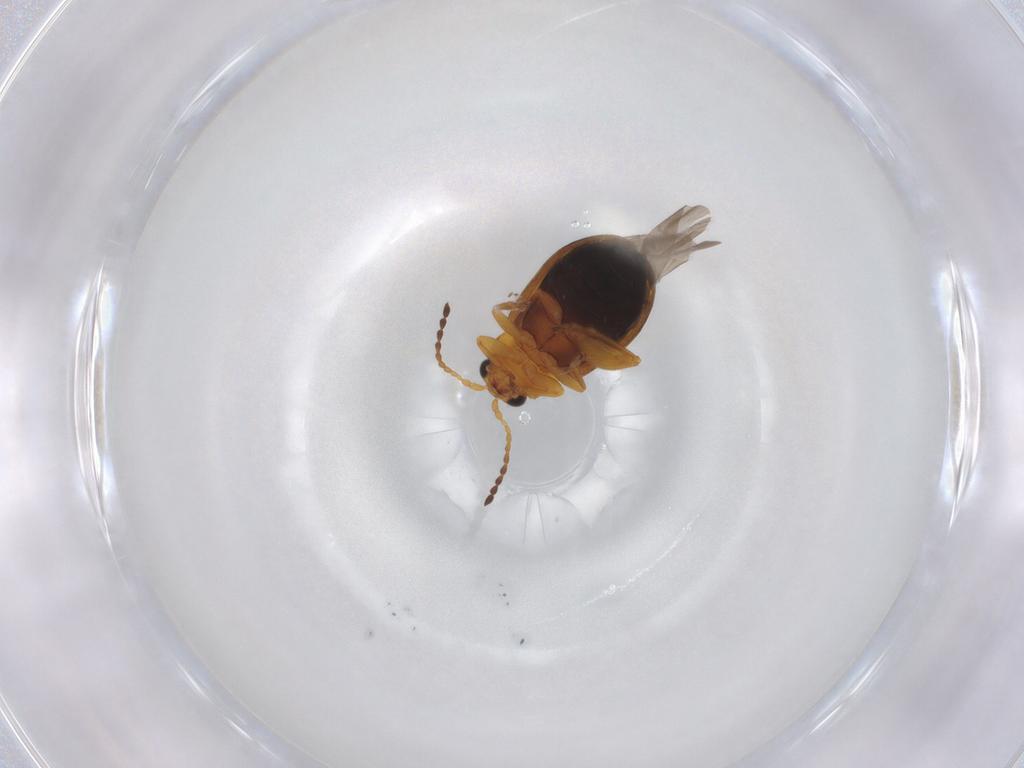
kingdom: Animalia
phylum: Arthropoda
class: Insecta
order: Coleoptera
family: Chrysomelidae
